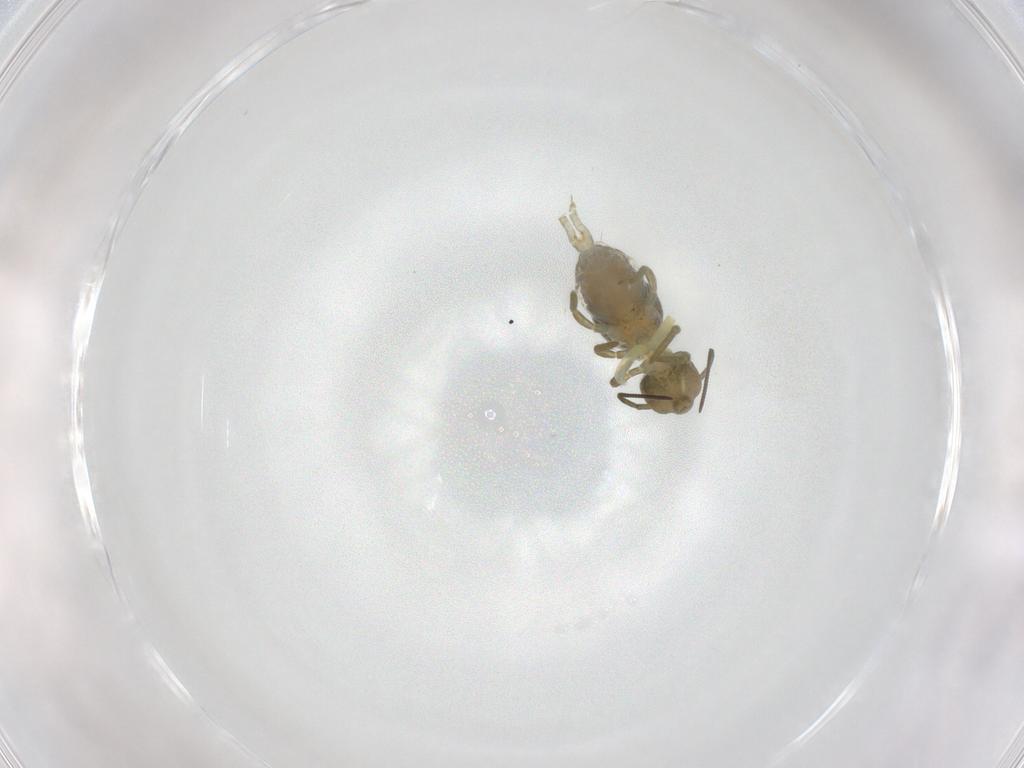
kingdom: Animalia
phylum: Arthropoda
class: Collembola
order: Symphypleona
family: Sminthuridae
